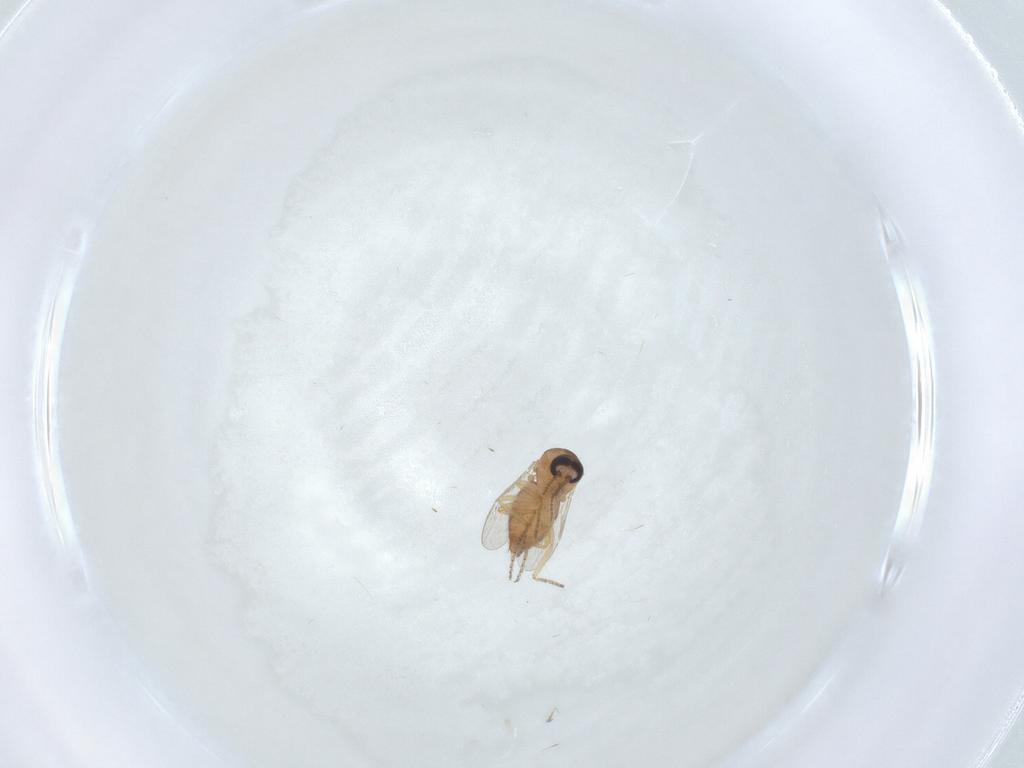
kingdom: Animalia
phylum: Arthropoda
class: Insecta
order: Diptera
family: Ceratopogonidae
